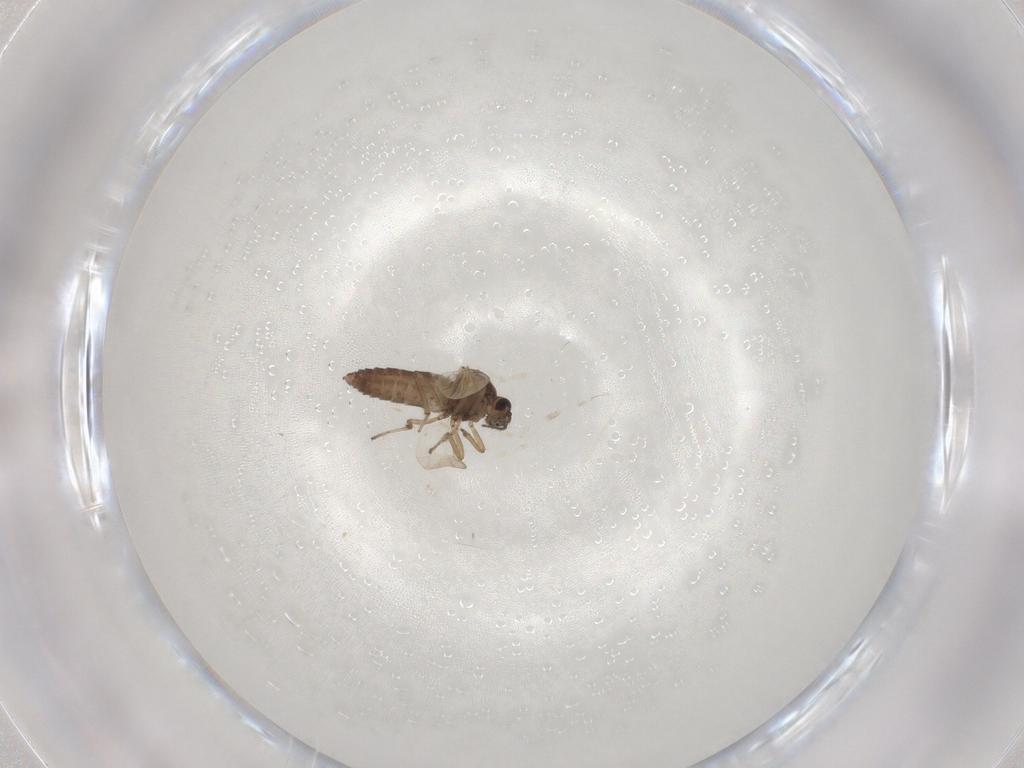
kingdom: Animalia
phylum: Arthropoda
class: Insecta
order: Diptera
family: Ceratopogonidae
